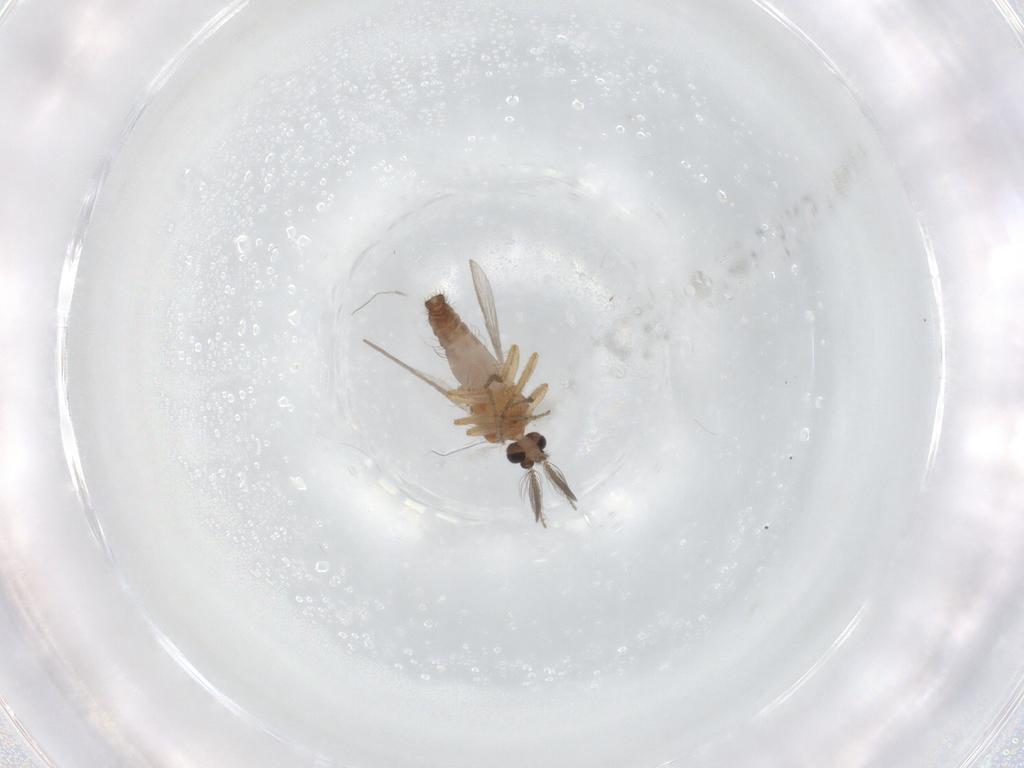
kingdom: Animalia
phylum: Arthropoda
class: Insecta
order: Diptera
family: Ceratopogonidae
